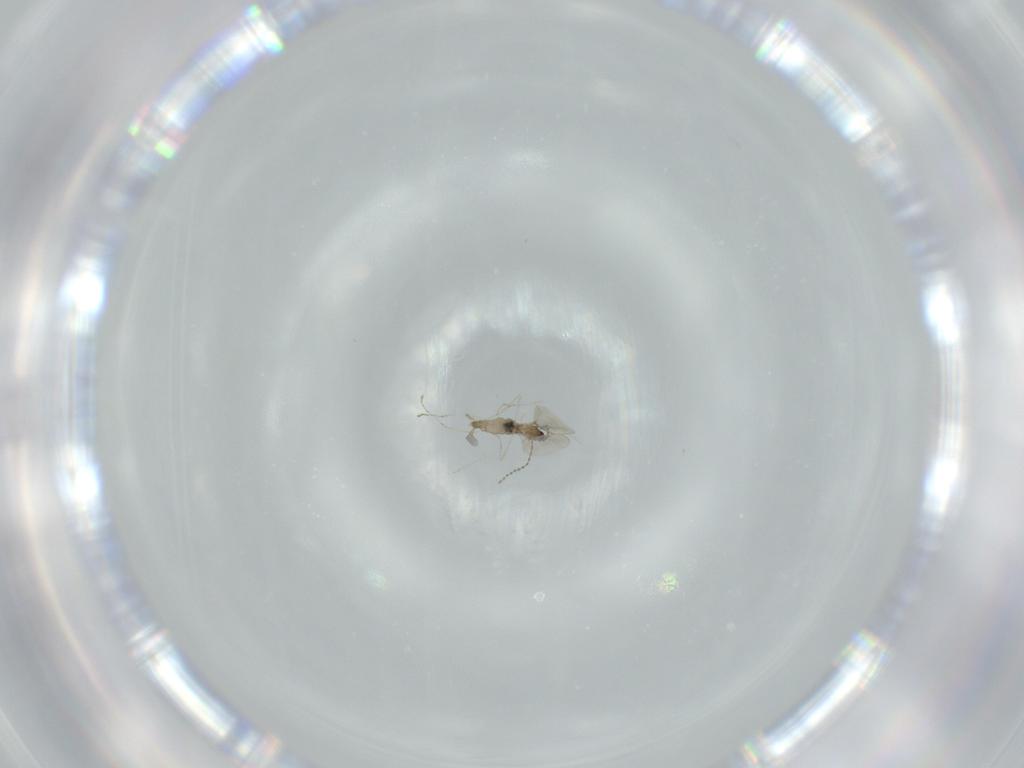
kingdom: Animalia
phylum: Arthropoda
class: Insecta
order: Diptera
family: Cecidomyiidae
